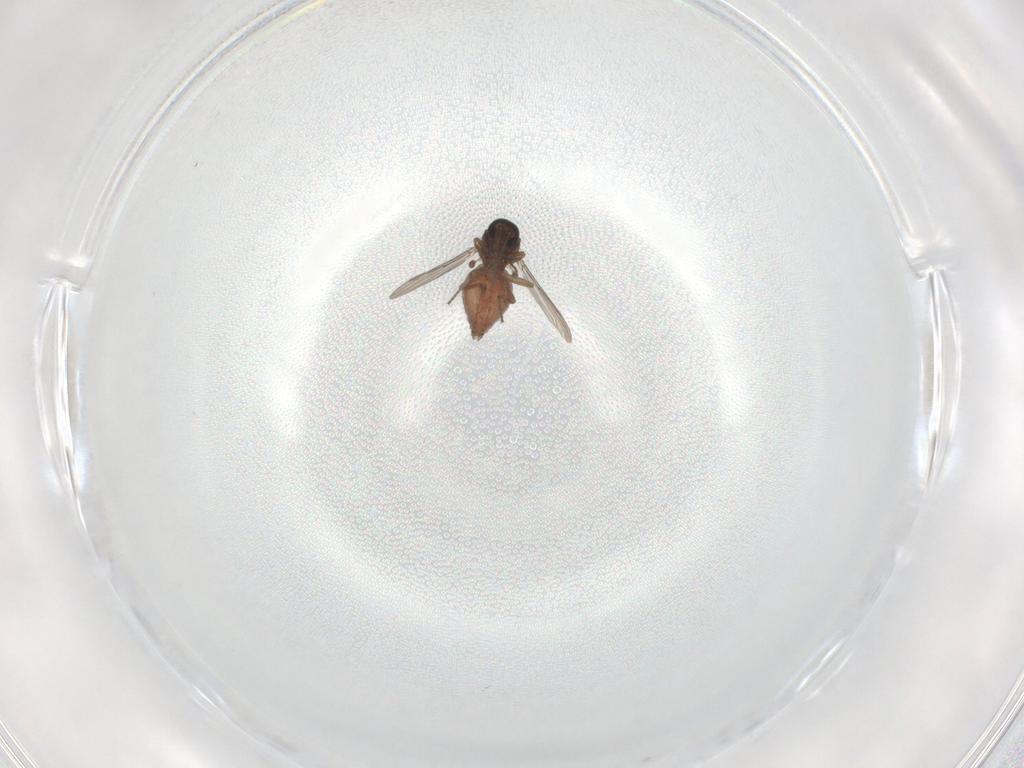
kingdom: Animalia
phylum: Arthropoda
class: Insecta
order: Diptera
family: Ceratopogonidae
